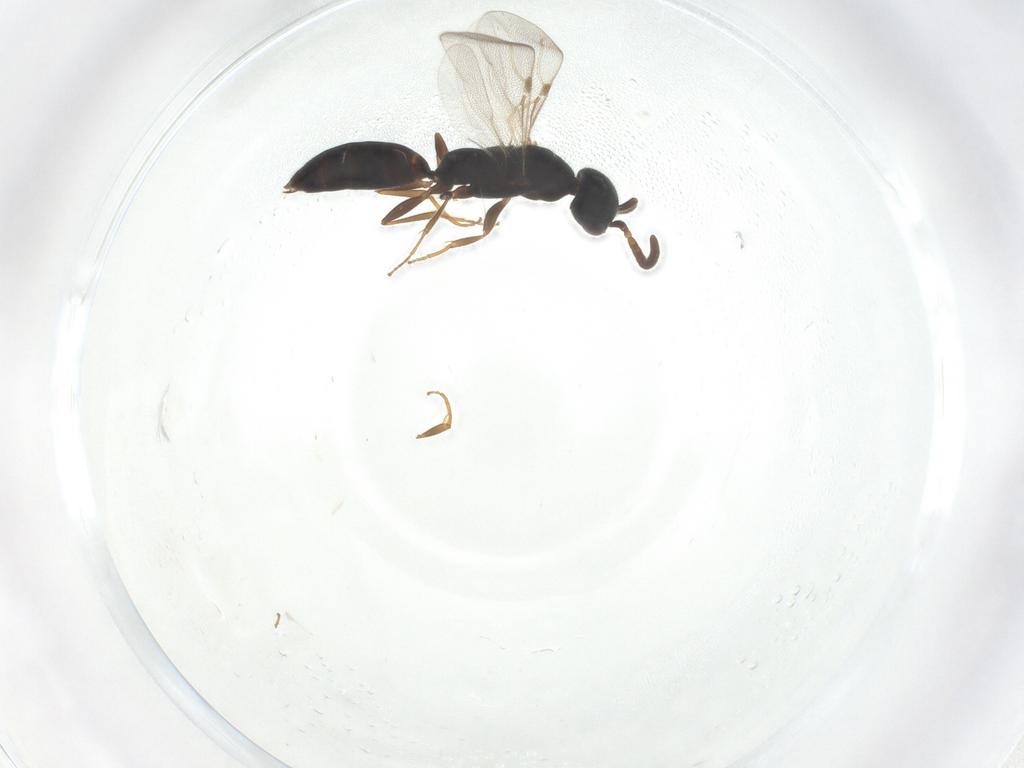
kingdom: Animalia
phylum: Arthropoda
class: Insecta
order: Hymenoptera
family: Bethylidae
